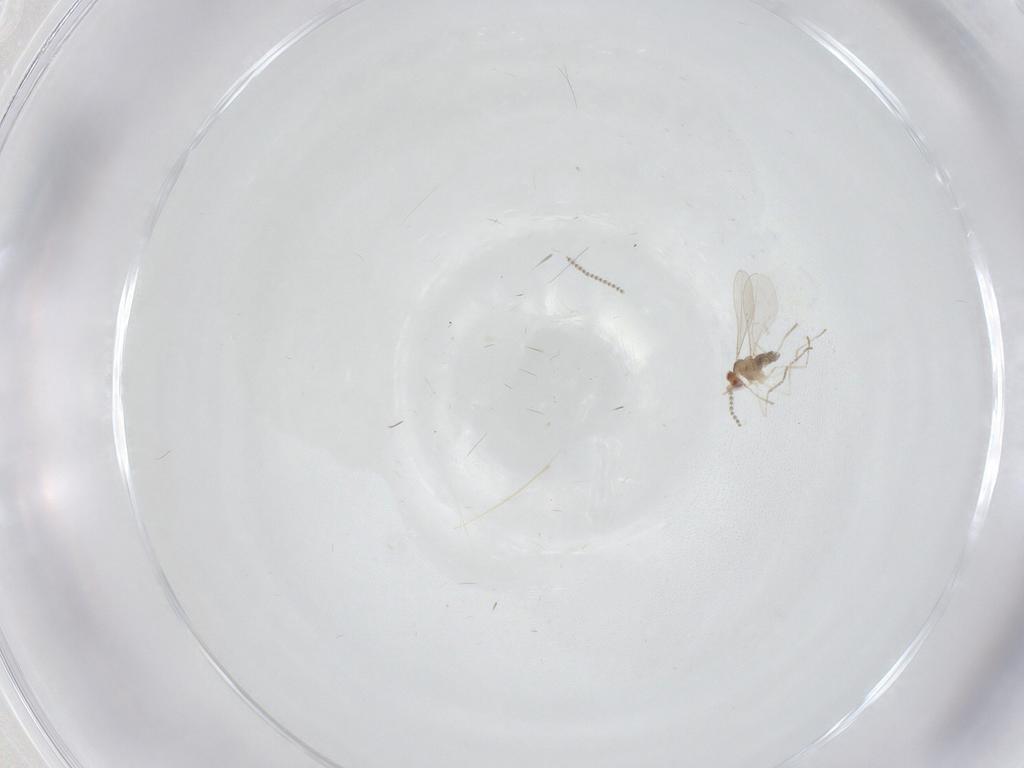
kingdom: Animalia
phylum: Arthropoda
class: Insecta
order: Diptera
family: Cecidomyiidae
